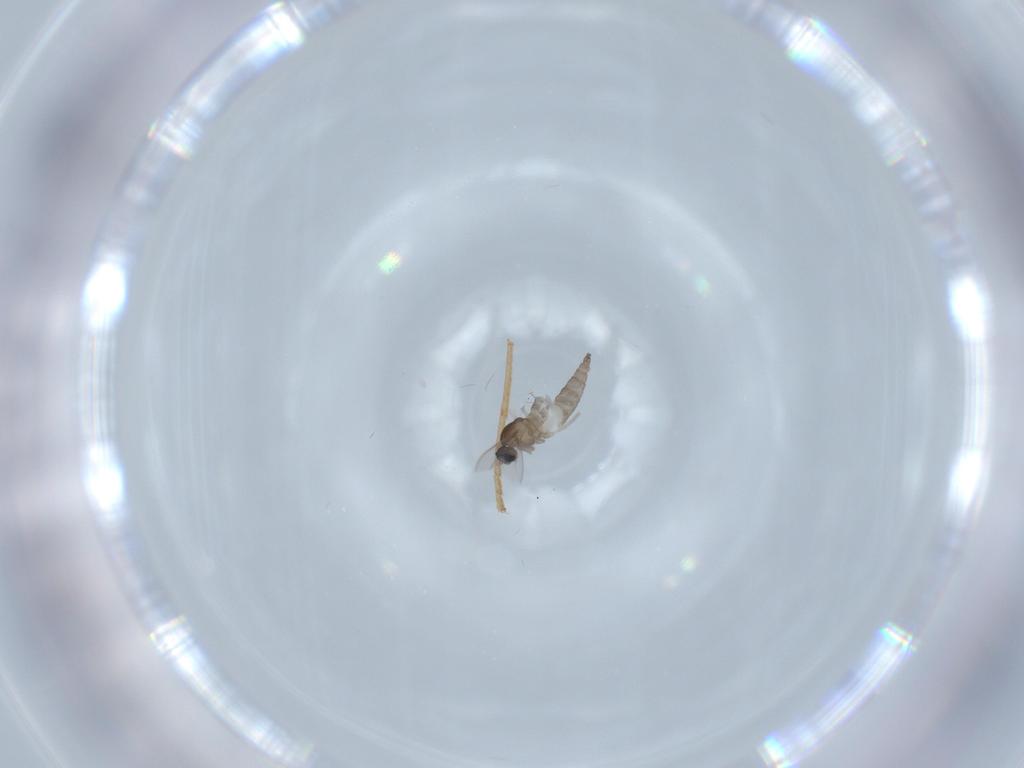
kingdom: Animalia
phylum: Arthropoda
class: Insecta
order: Diptera
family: Cecidomyiidae
